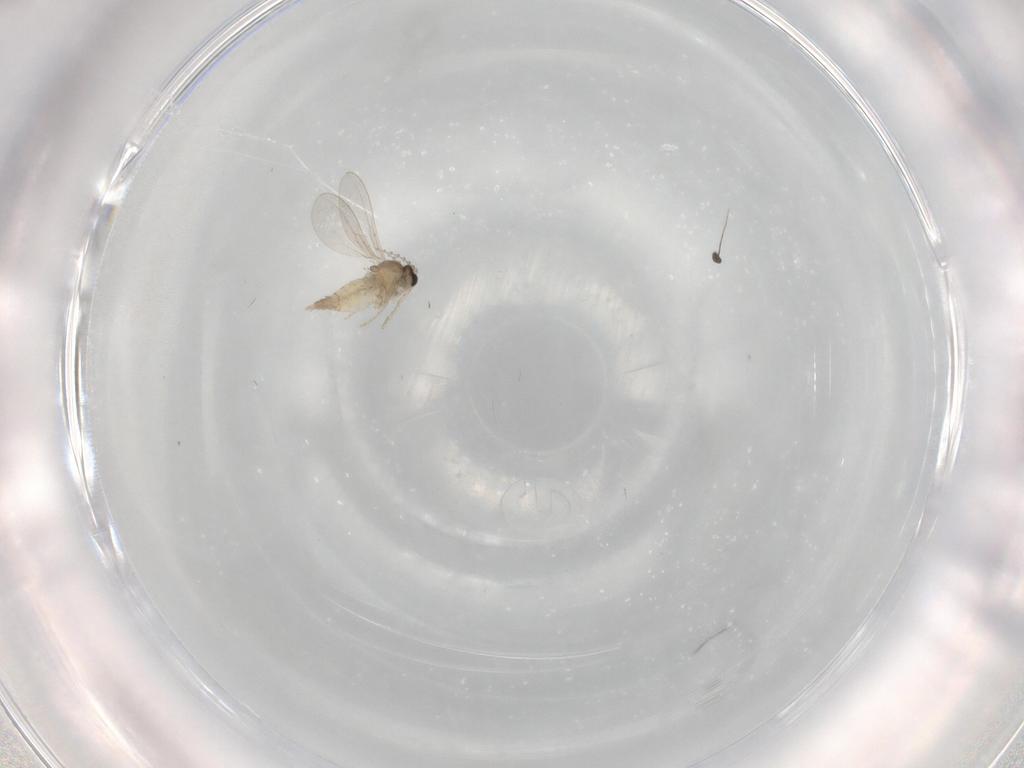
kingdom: Animalia
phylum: Arthropoda
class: Insecta
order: Diptera
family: Cecidomyiidae
